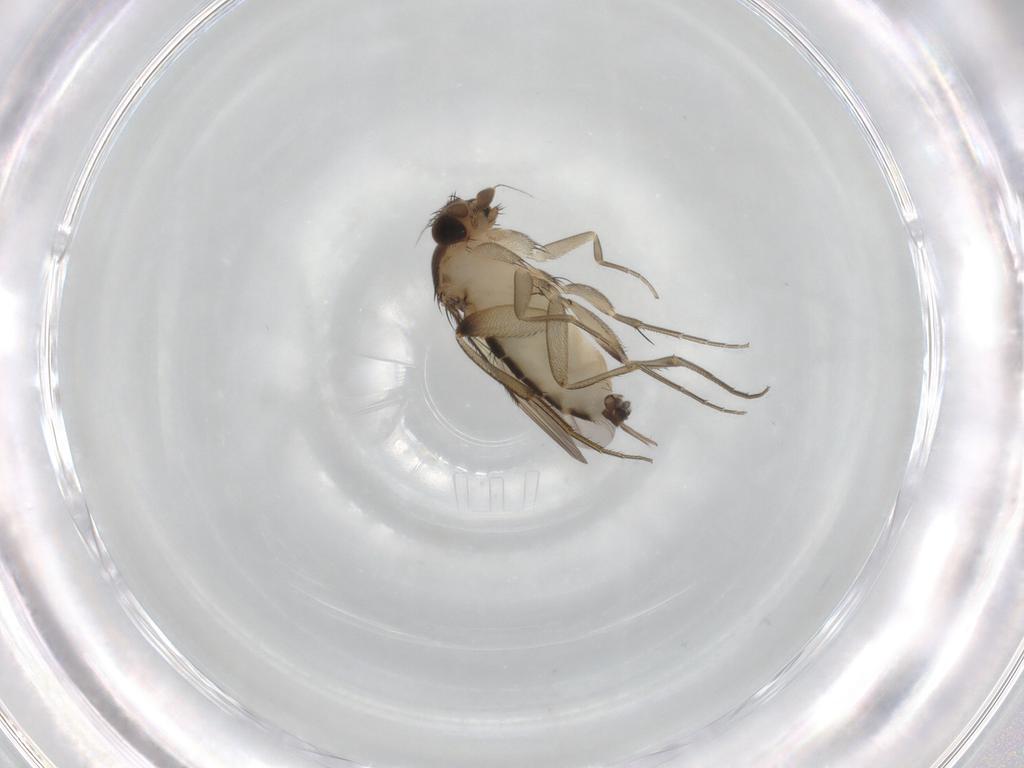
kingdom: Animalia
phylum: Arthropoda
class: Insecta
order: Diptera
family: Phoridae
